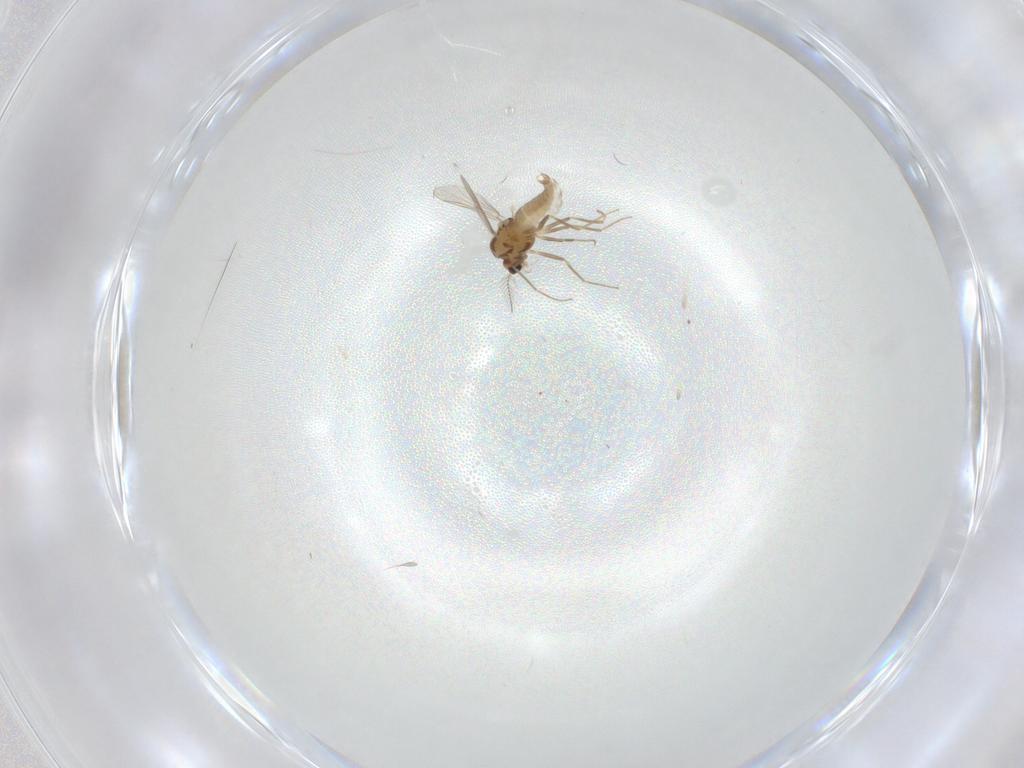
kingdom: Animalia
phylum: Arthropoda
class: Insecta
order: Diptera
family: Chironomidae
